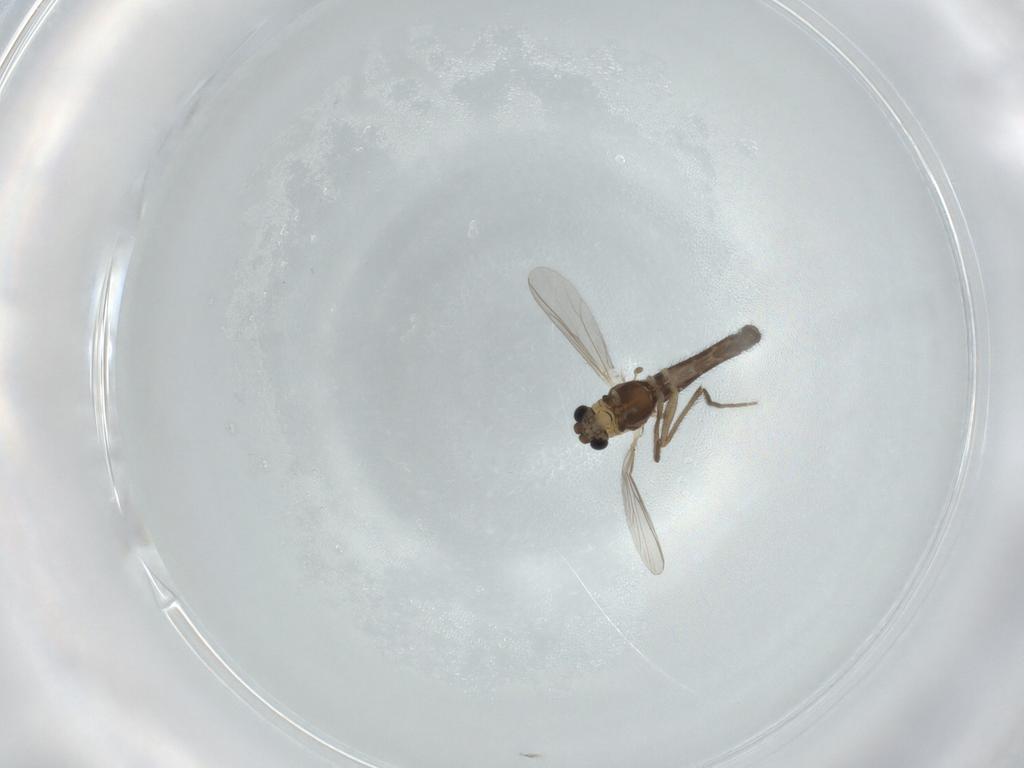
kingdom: Animalia
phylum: Arthropoda
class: Insecta
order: Diptera
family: Chironomidae
